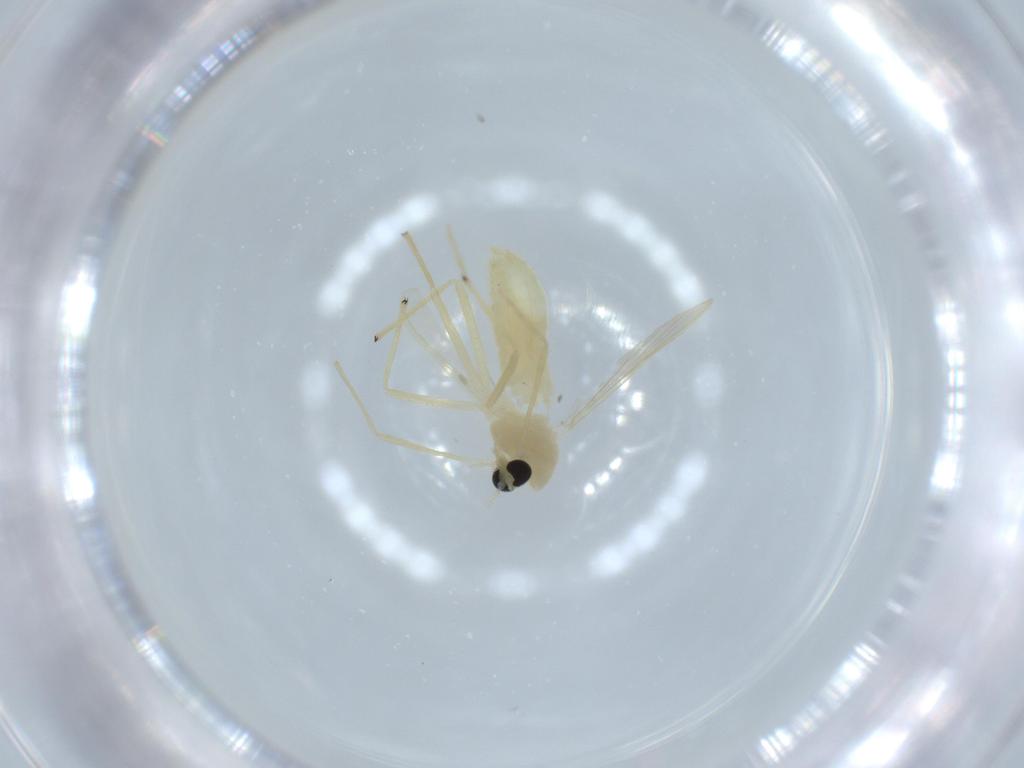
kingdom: Animalia
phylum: Arthropoda
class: Insecta
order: Diptera
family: Chironomidae
